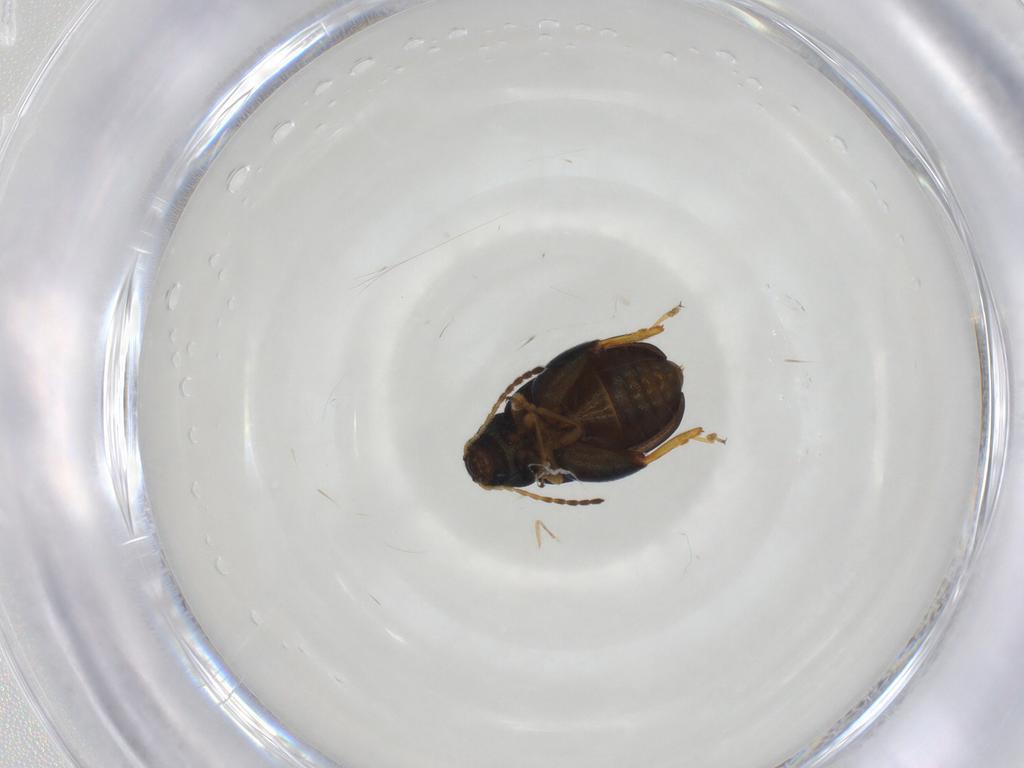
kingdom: Animalia
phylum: Arthropoda
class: Insecta
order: Coleoptera
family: Chrysomelidae
